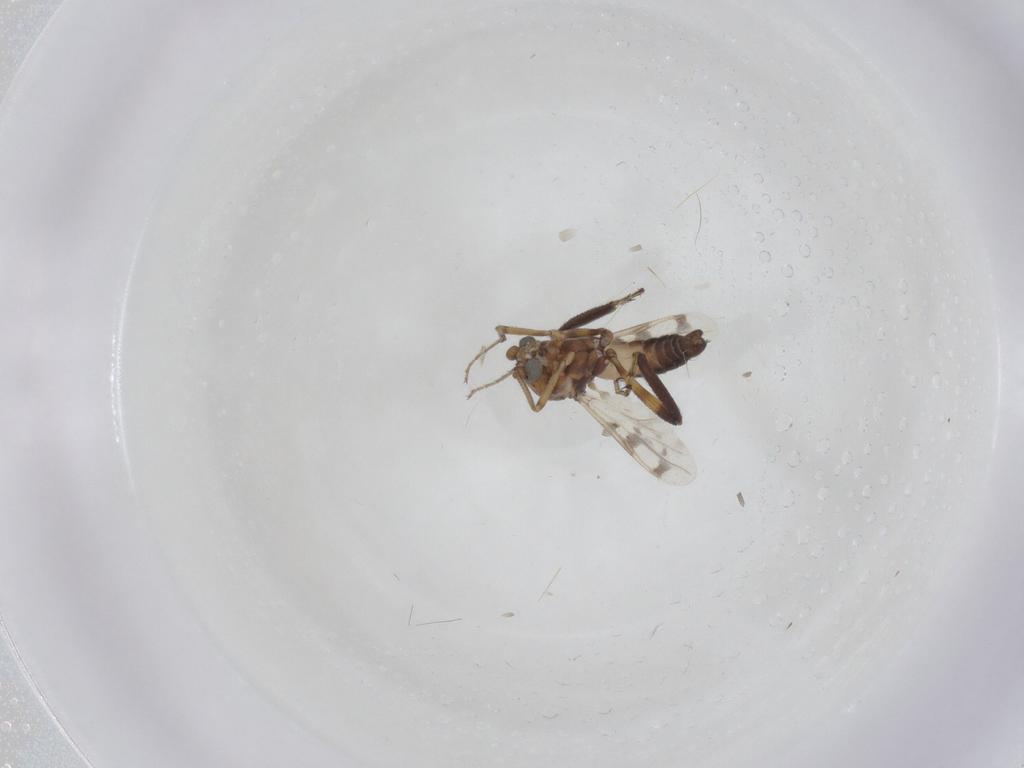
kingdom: Animalia
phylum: Arthropoda
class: Insecta
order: Diptera
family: Ceratopogonidae
